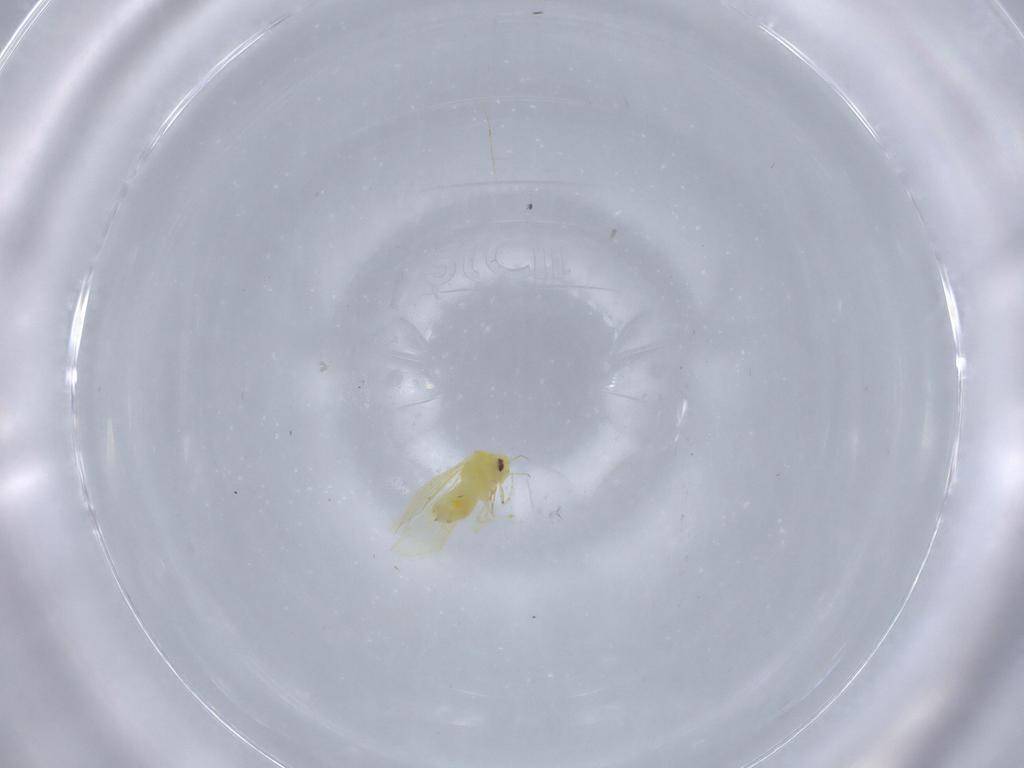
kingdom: Animalia
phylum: Arthropoda
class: Insecta
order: Hemiptera
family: Aleyrodidae
